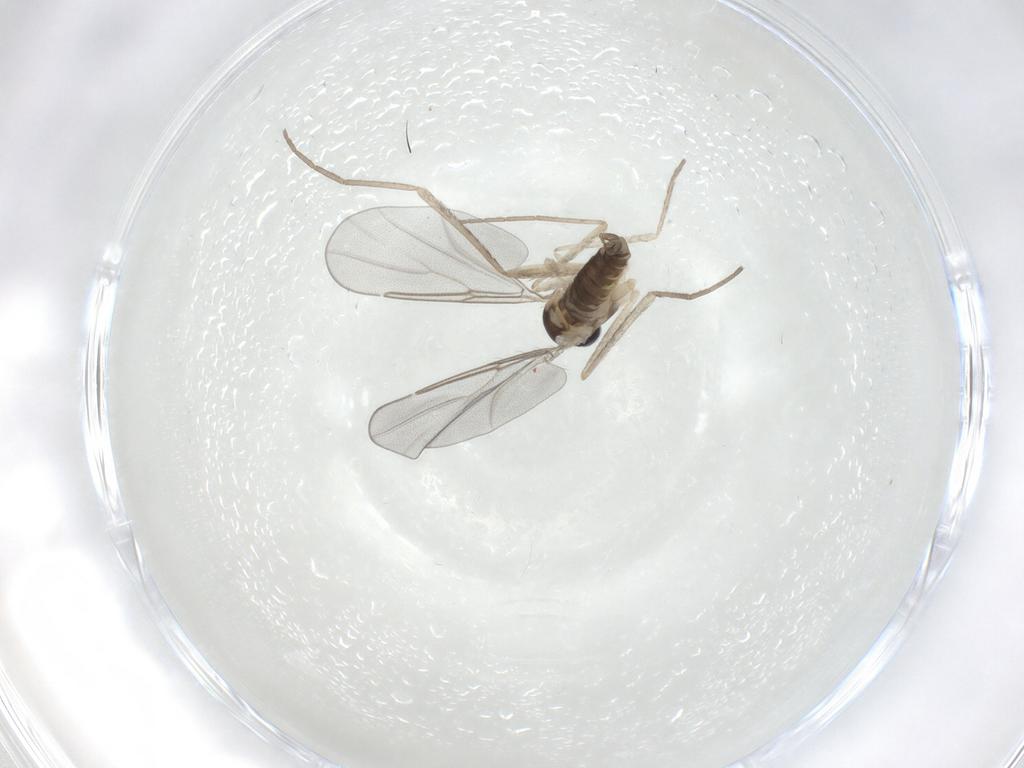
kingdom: Animalia
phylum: Arthropoda
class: Insecta
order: Diptera
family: Cecidomyiidae
